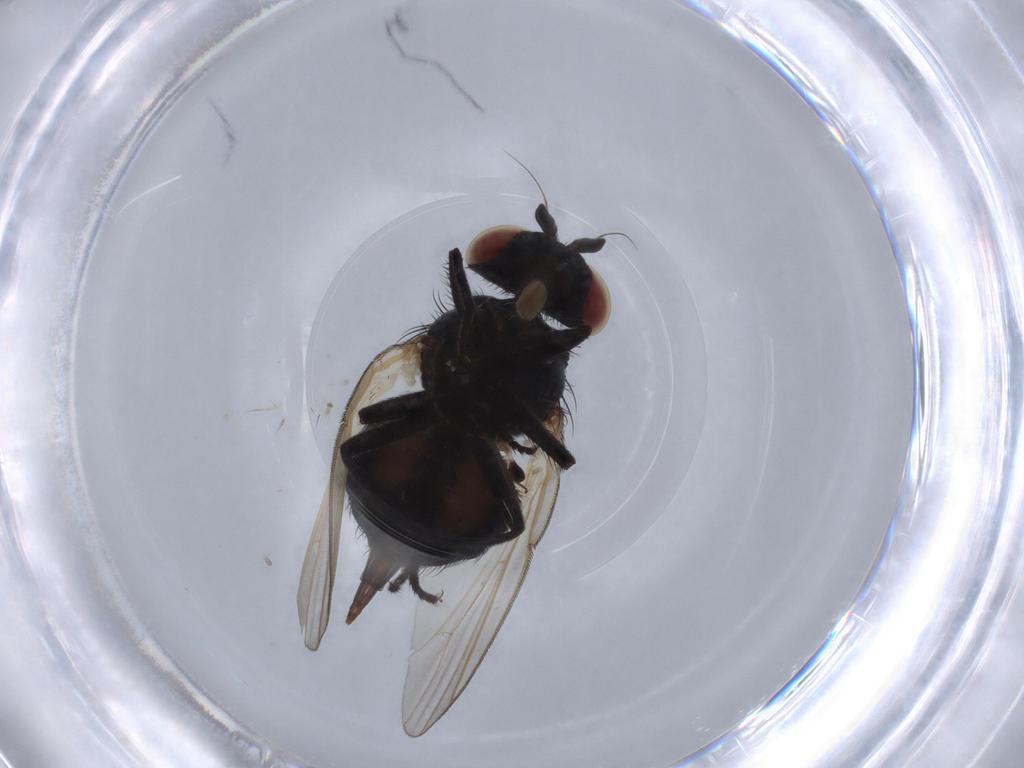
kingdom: Animalia
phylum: Arthropoda
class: Insecta
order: Diptera
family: Lonchaeidae
